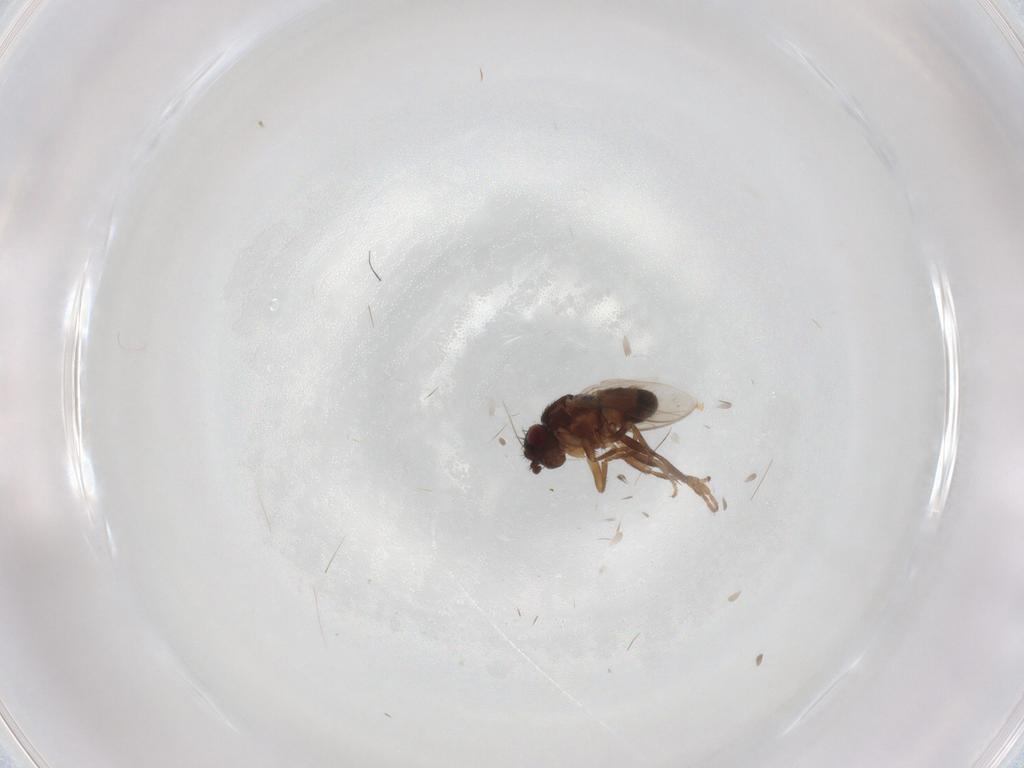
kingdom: Animalia
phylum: Arthropoda
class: Insecta
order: Diptera
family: Sphaeroceridae
